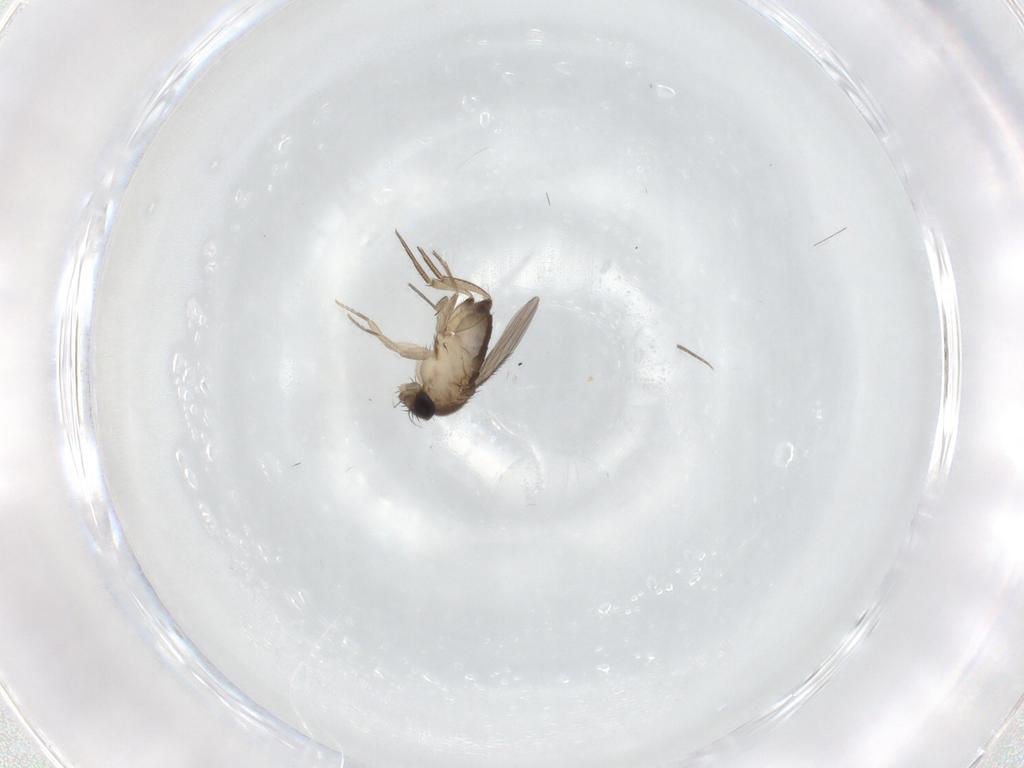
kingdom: Animalia
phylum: Arthropoda
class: Insecta
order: Diptera
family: Phoridae
